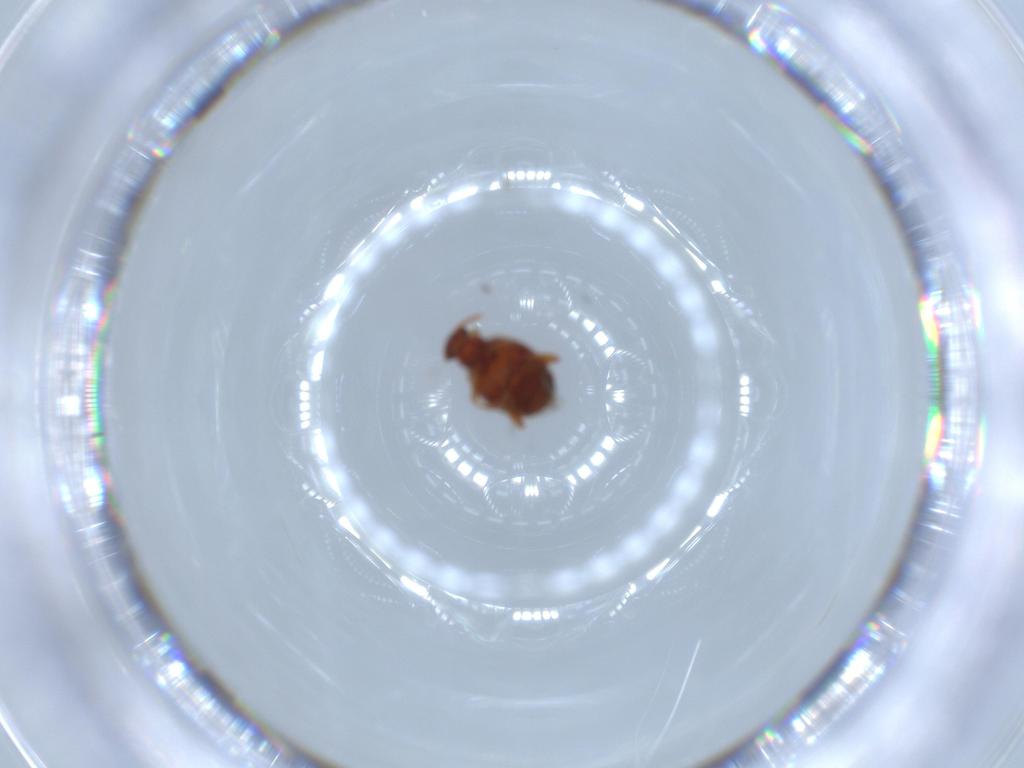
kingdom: Animalia
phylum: Arthropoda
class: Insecta
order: Coleoptera
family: Aderidae
